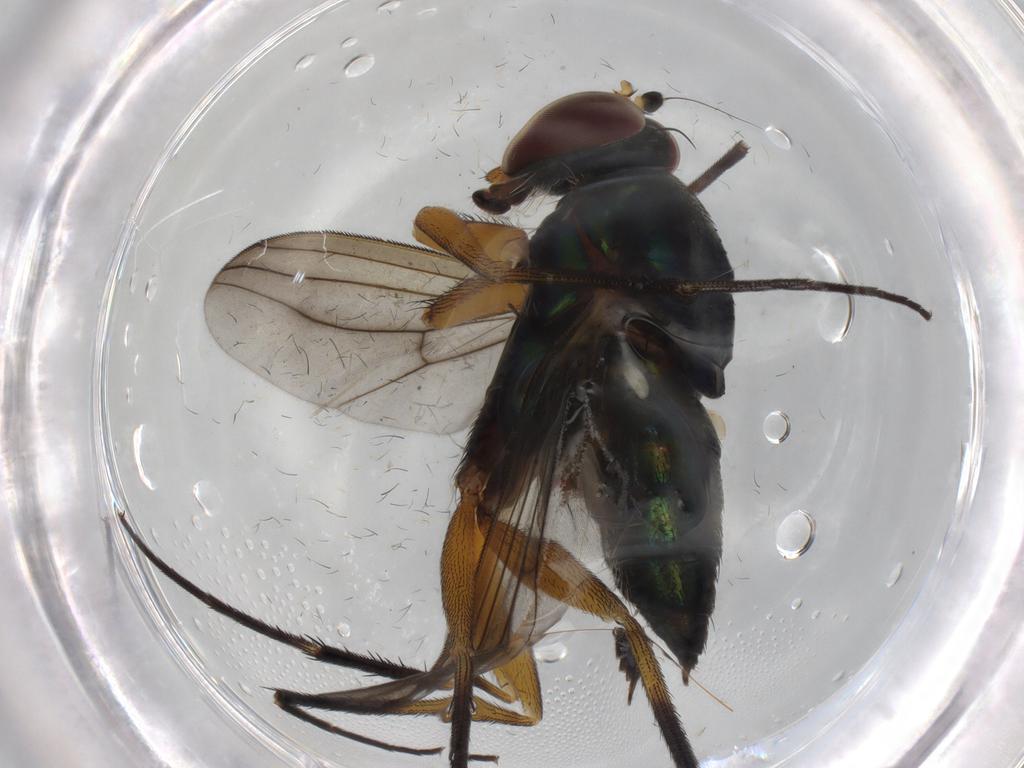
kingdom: Animalia
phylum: Arthropoda
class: Insecta
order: Diptera
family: Dolichopodidae
